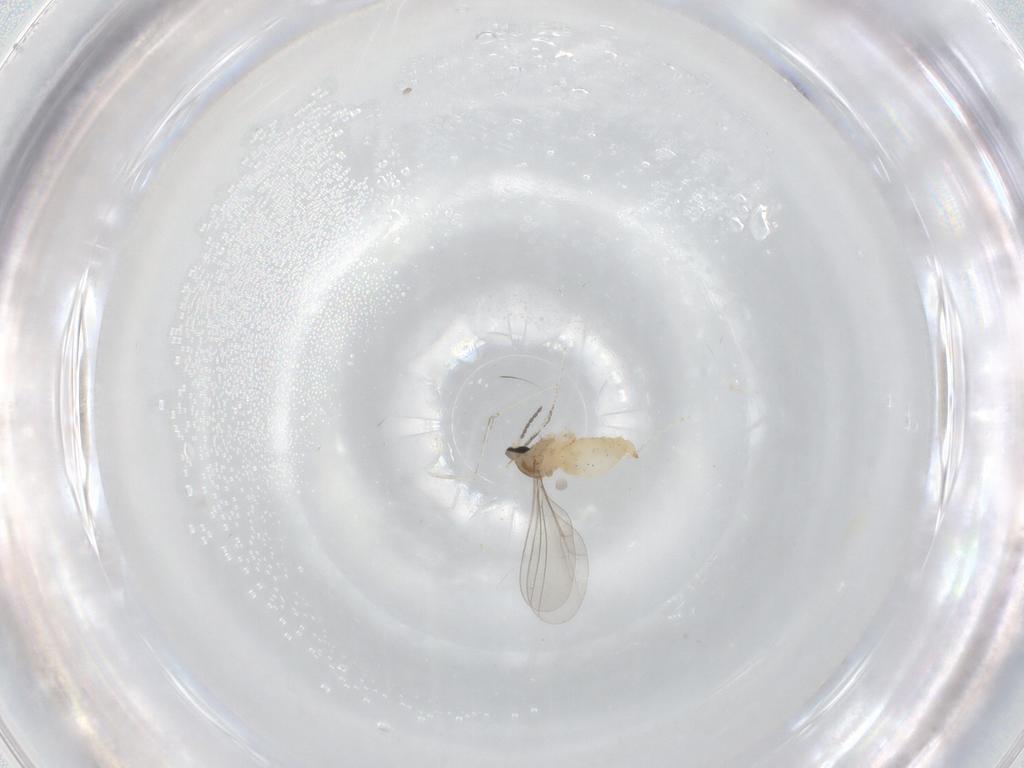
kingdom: Animalia
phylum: Arthropoda
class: Insecta
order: Diptera
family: Cecidomyiidae
